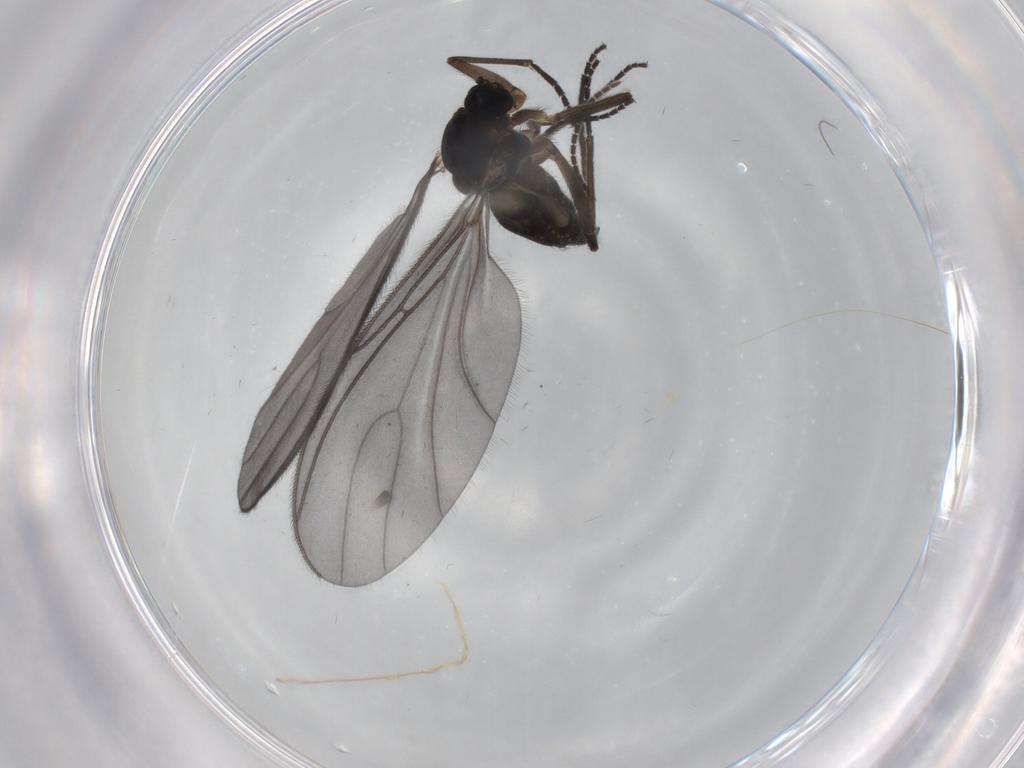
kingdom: Animalia
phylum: Arthropoda
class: Insecta
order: Diptera
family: Sciaridae
